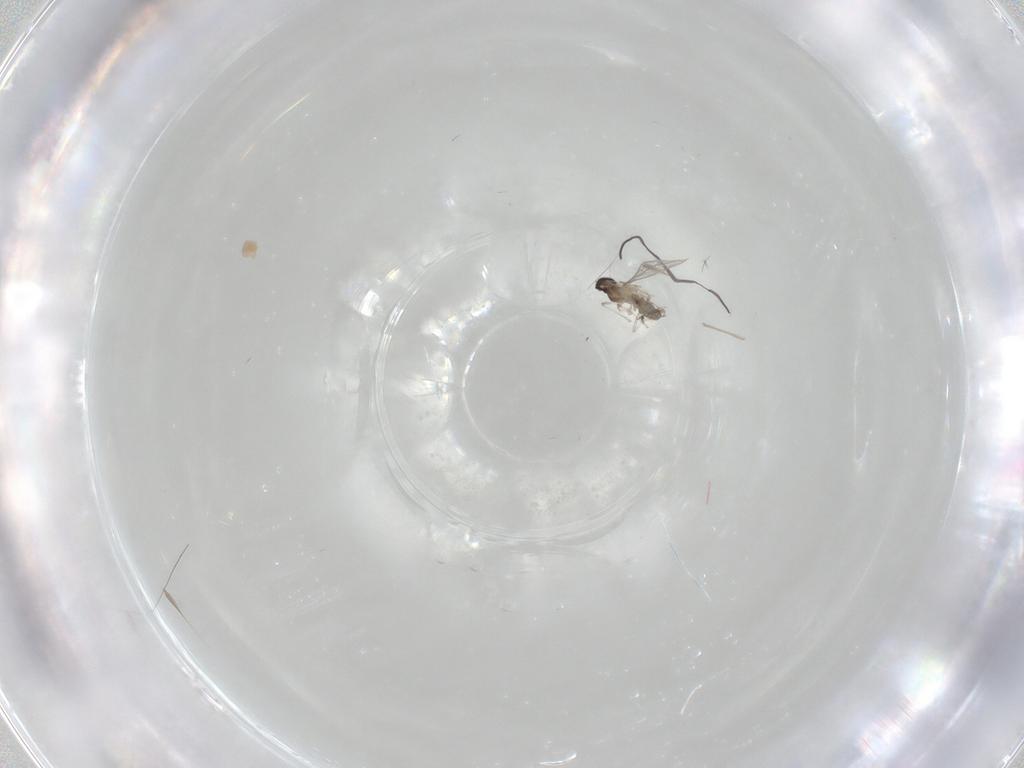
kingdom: Animalia
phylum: Arthropoda
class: Insecta
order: Diptera
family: Cecidomyiidae
